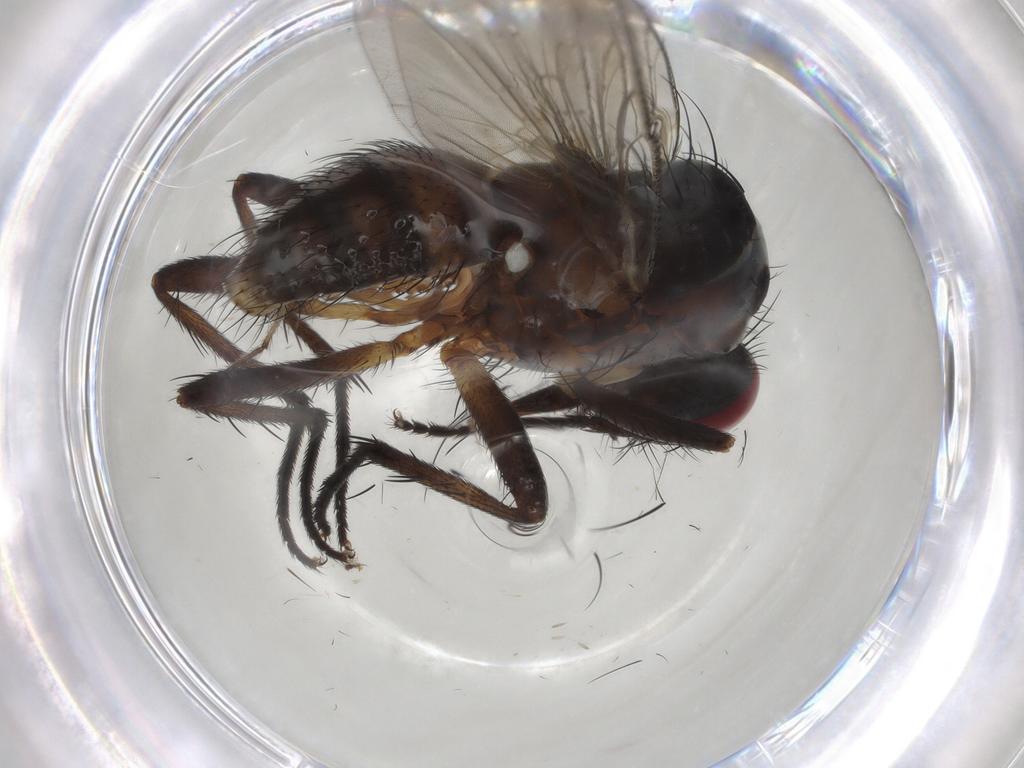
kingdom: Animalia
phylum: Arthropoda
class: Insecta
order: Diptera
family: Anthomyiidae
